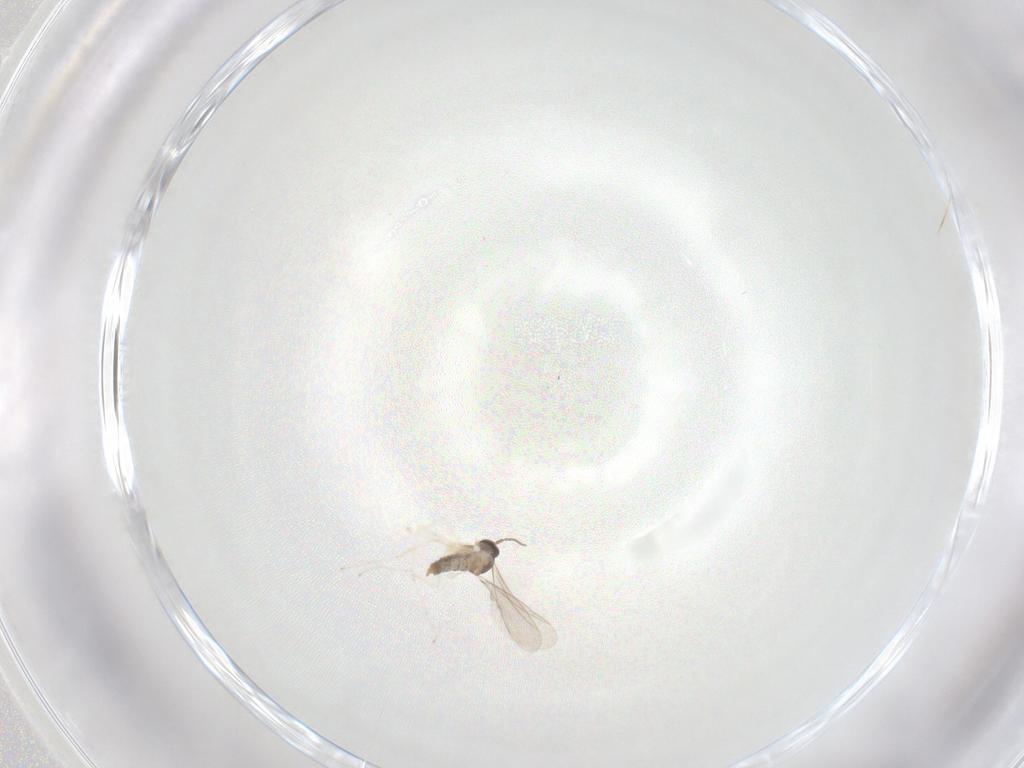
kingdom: Animalia
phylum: Arthropoda
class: Insecta
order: Diptera
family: Cecidomyiidae
